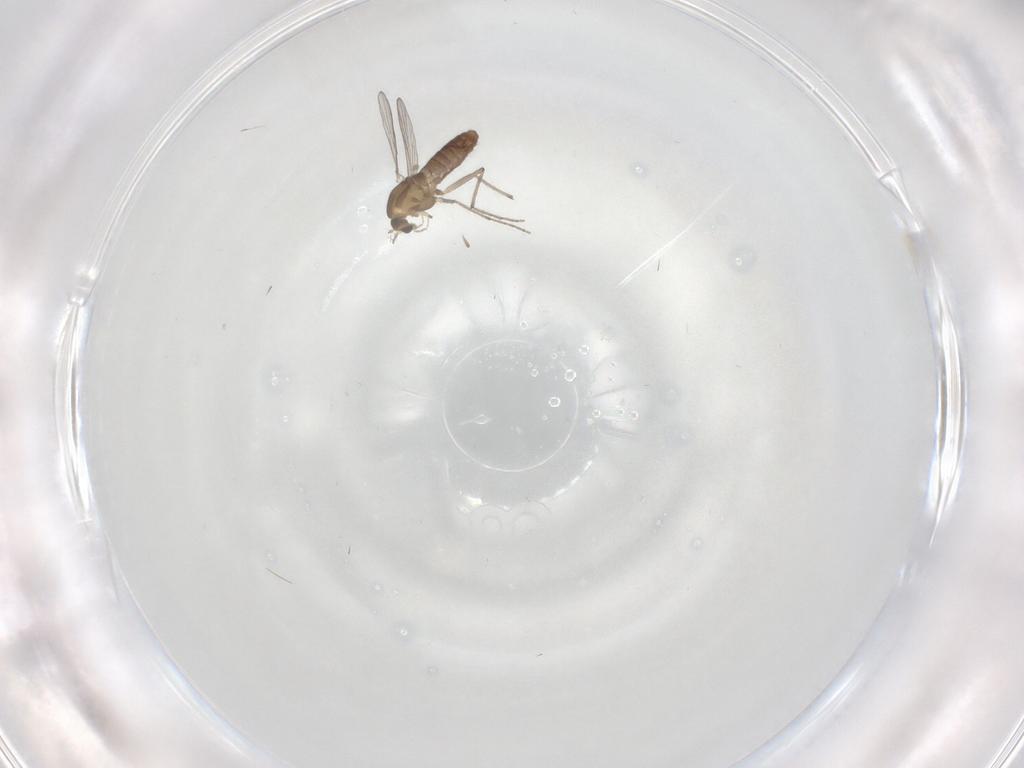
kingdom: Animalia
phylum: Arthropoda
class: Insecta
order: Diptera
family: Chironomidae
